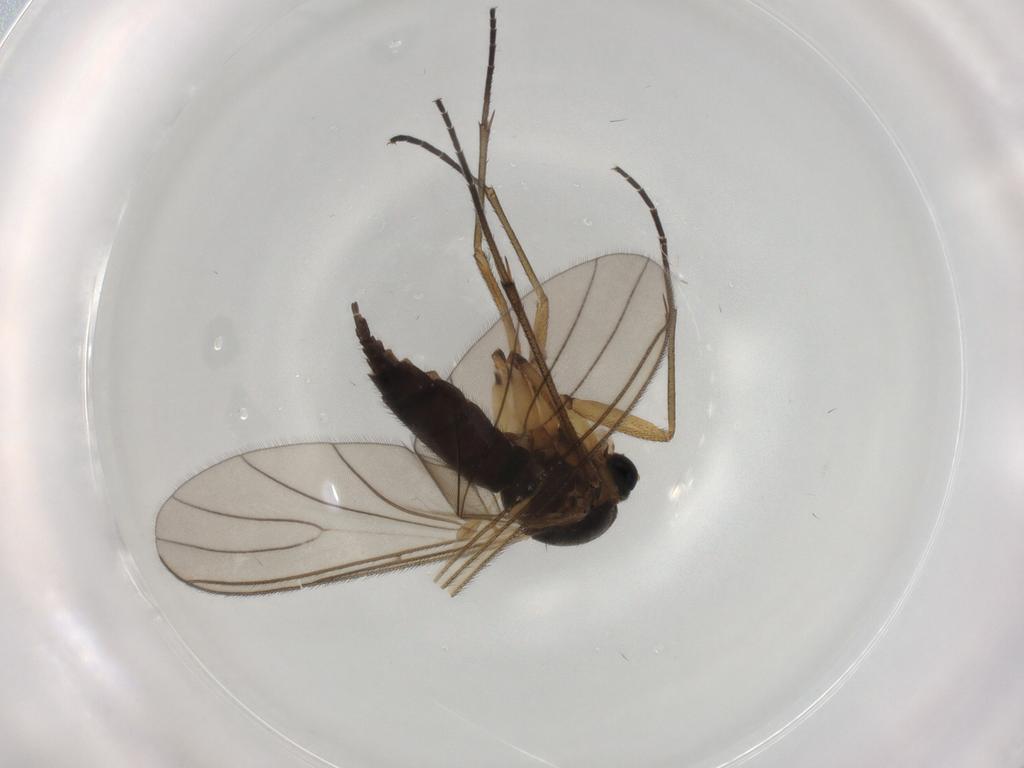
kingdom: Animalia
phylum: Arthropoda
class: Insecta
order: Diptera
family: Sciaridae
